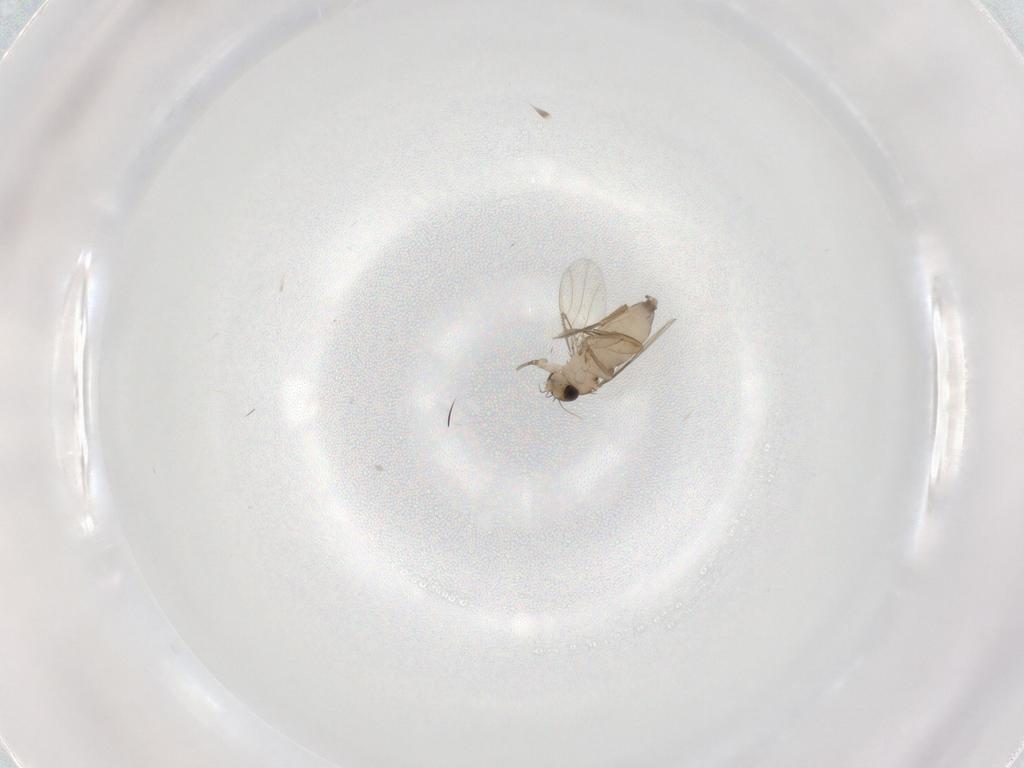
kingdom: Animalia
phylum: Arthropoda
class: Insecta
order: Diptera
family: Phoridae
